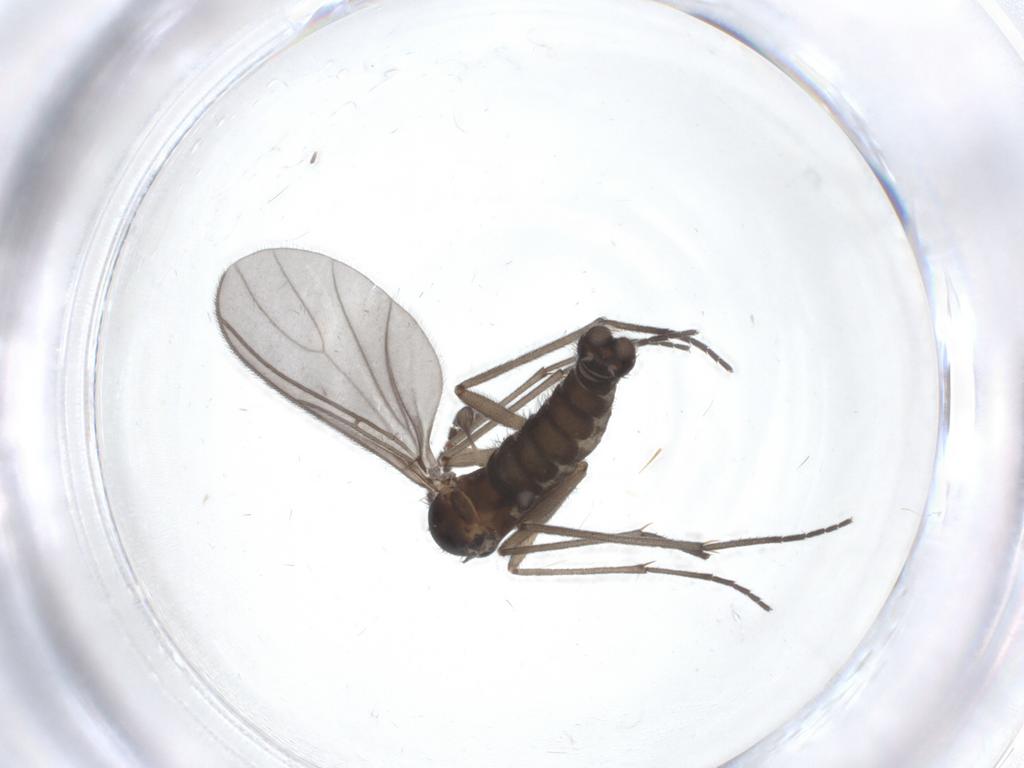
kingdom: Animalia
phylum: Arthropoda
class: Insecta
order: Diptera
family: Sciaridae
